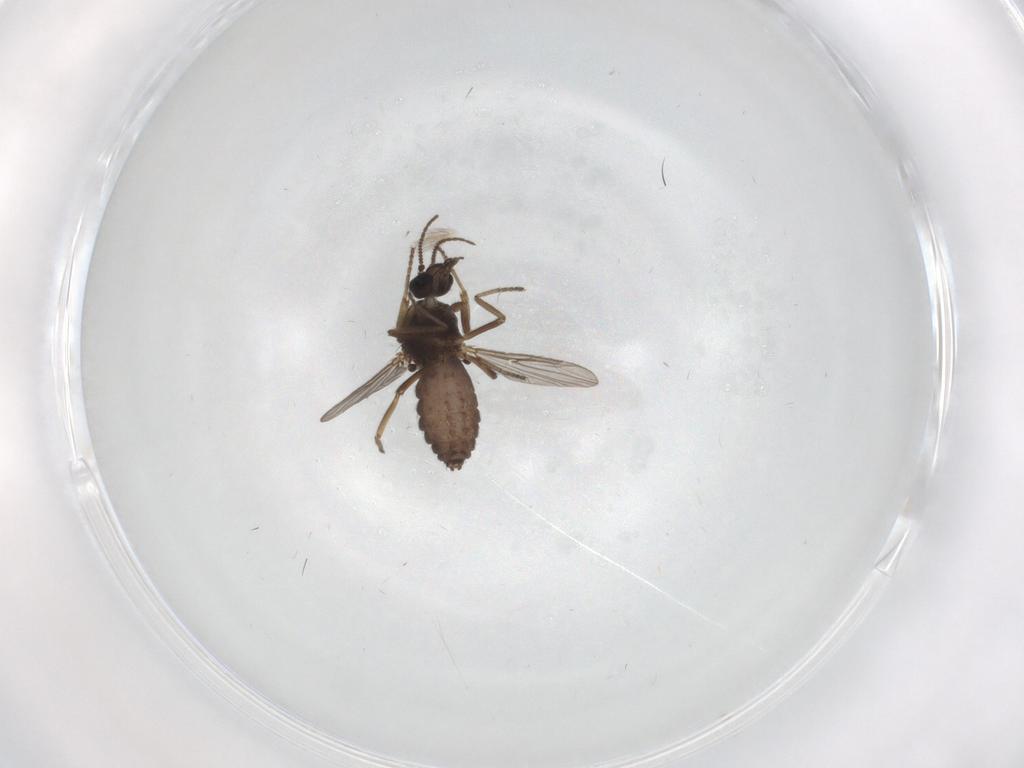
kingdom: Animalia
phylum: Arthropoda
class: Insecta
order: Diptera
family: Ceratopogonidae
